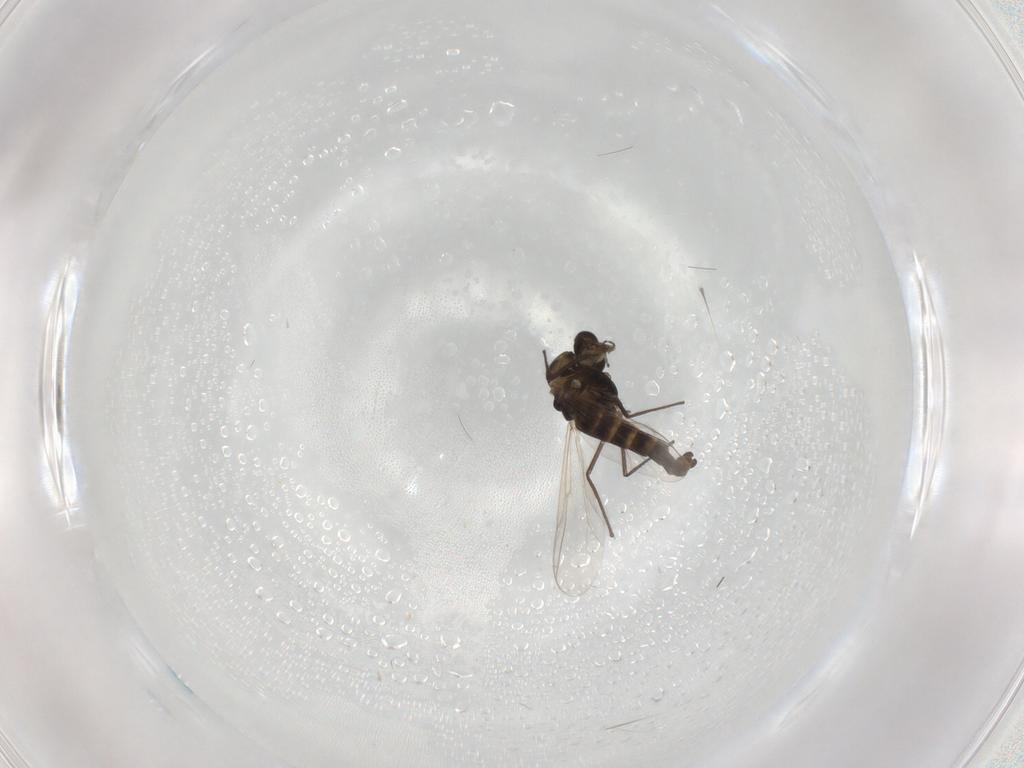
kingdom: Animalia
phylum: Arthropoda
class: Insecta
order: Diptera
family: Chironomidae
